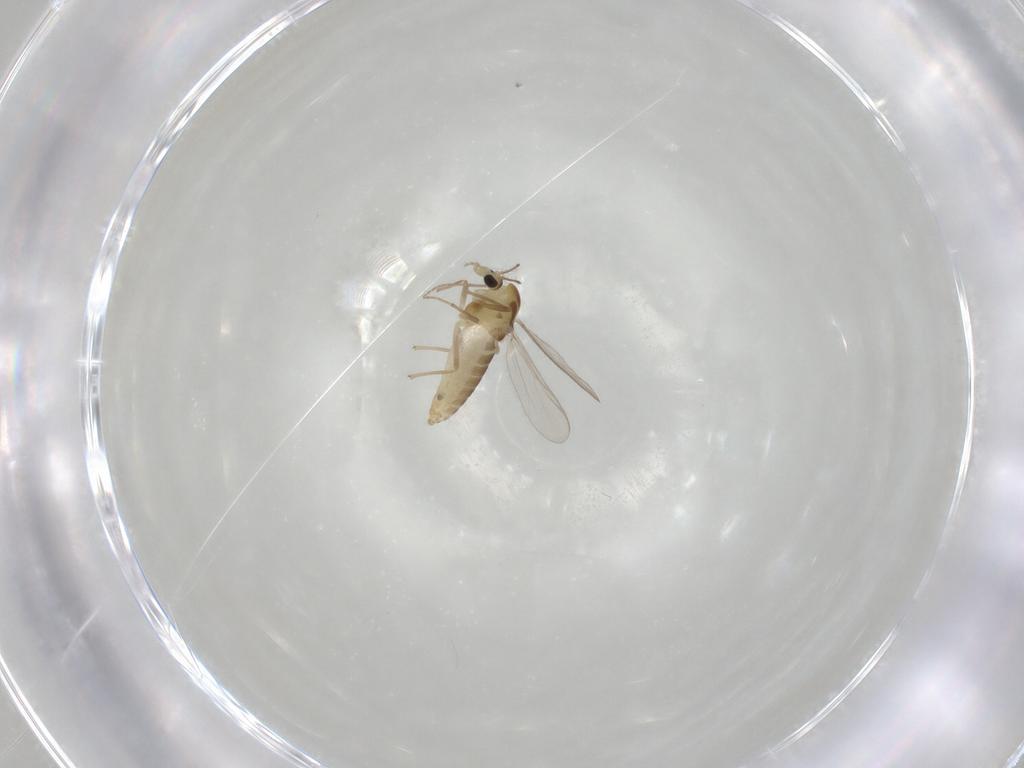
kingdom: Animalia
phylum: Arthropoda
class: Insecta
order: Diptera
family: Chironomidae
